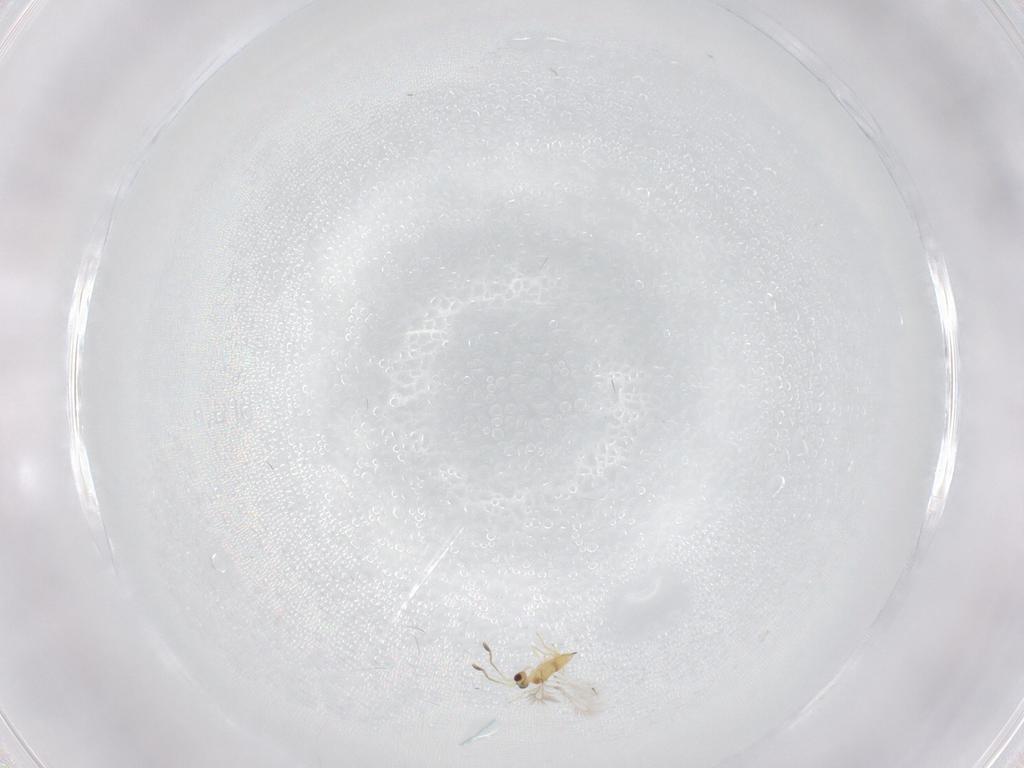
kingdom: Animalia
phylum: Arthropoda
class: Insecta
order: Hymenoptera
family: Mymaridae
